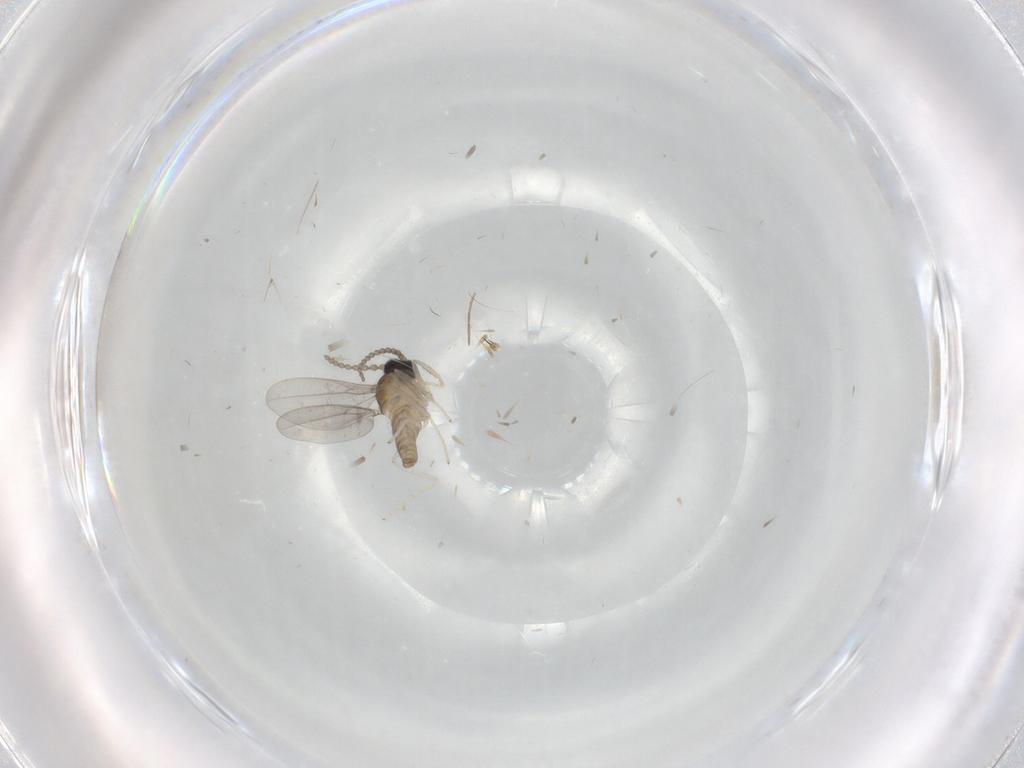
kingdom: Animalia
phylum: Arthropoda
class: Insecta
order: Diptera
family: Phoridae
